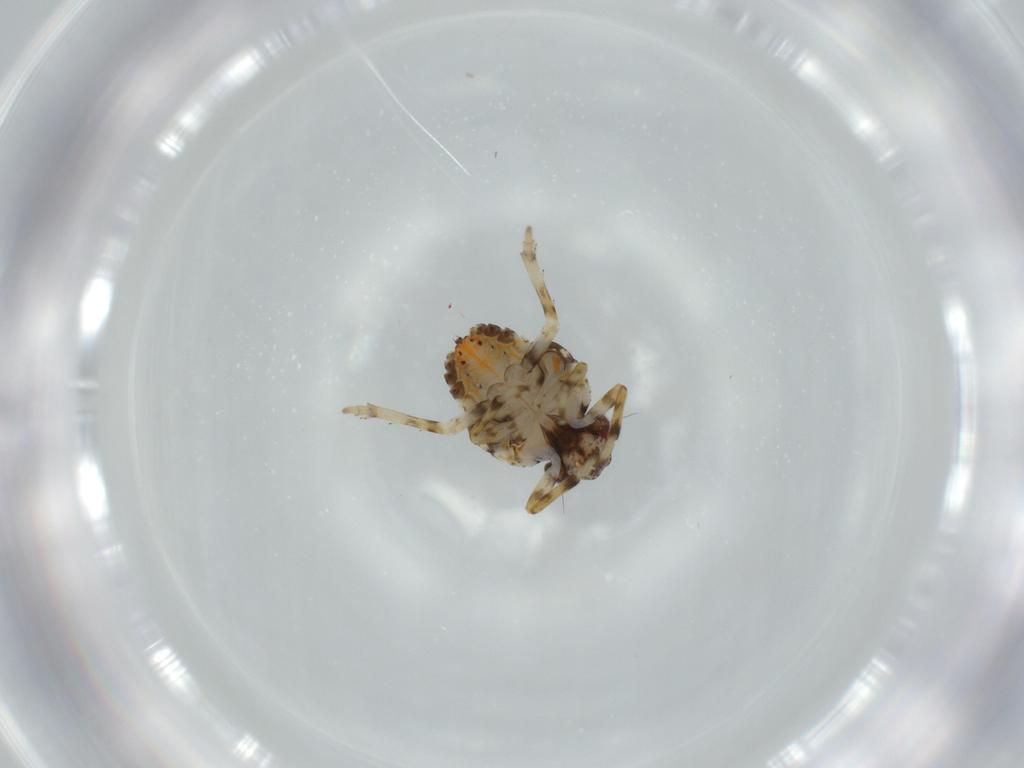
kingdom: Animalia
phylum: Arthropoda
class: Insecta
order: Hemiptera
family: Issidae
